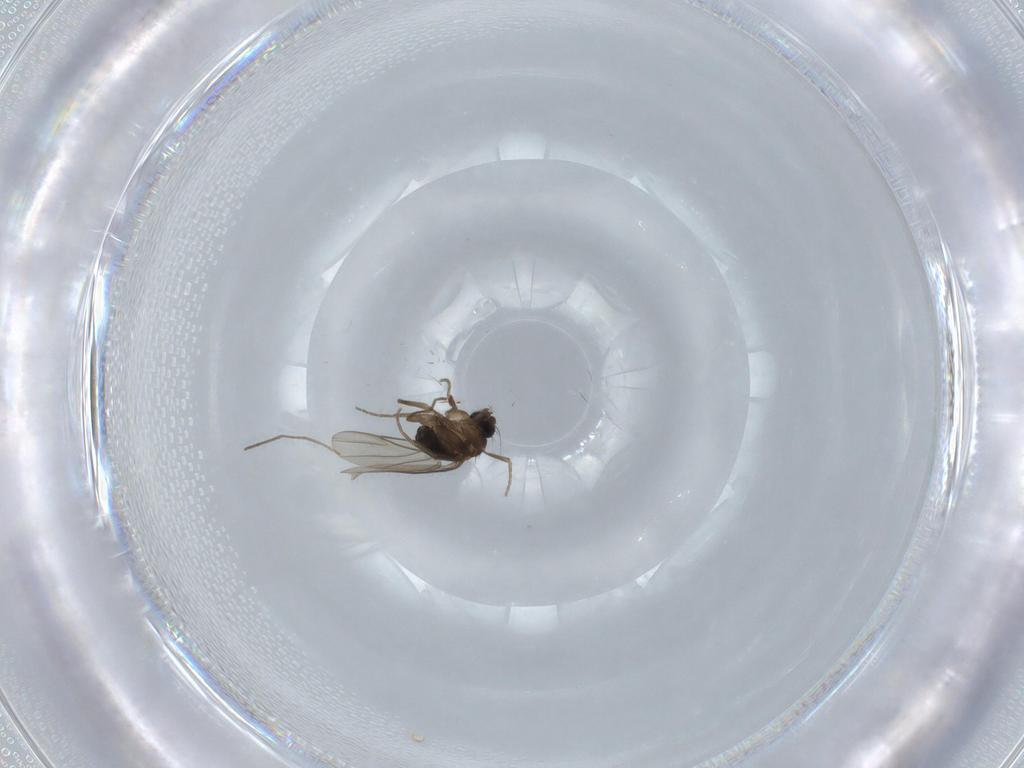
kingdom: Animalia
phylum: Arthropoda
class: Insecta
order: Diptera
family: Phoridae
